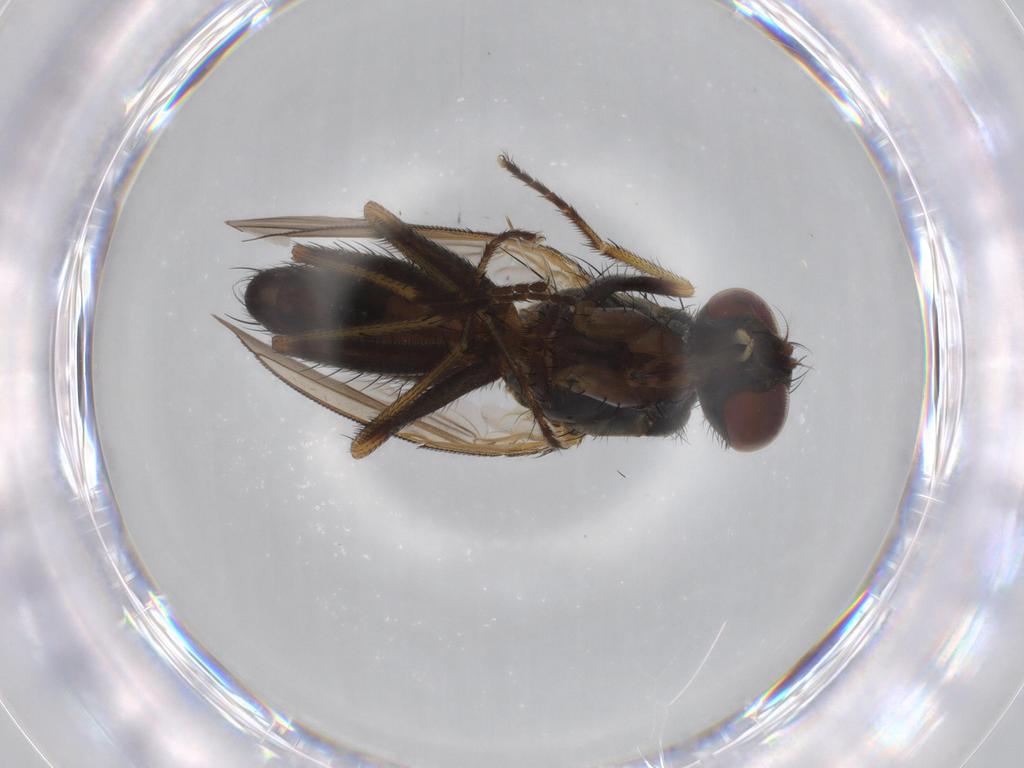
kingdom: Animalia
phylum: Arthropoda
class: Insecta
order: Diptera
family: Muscidae
